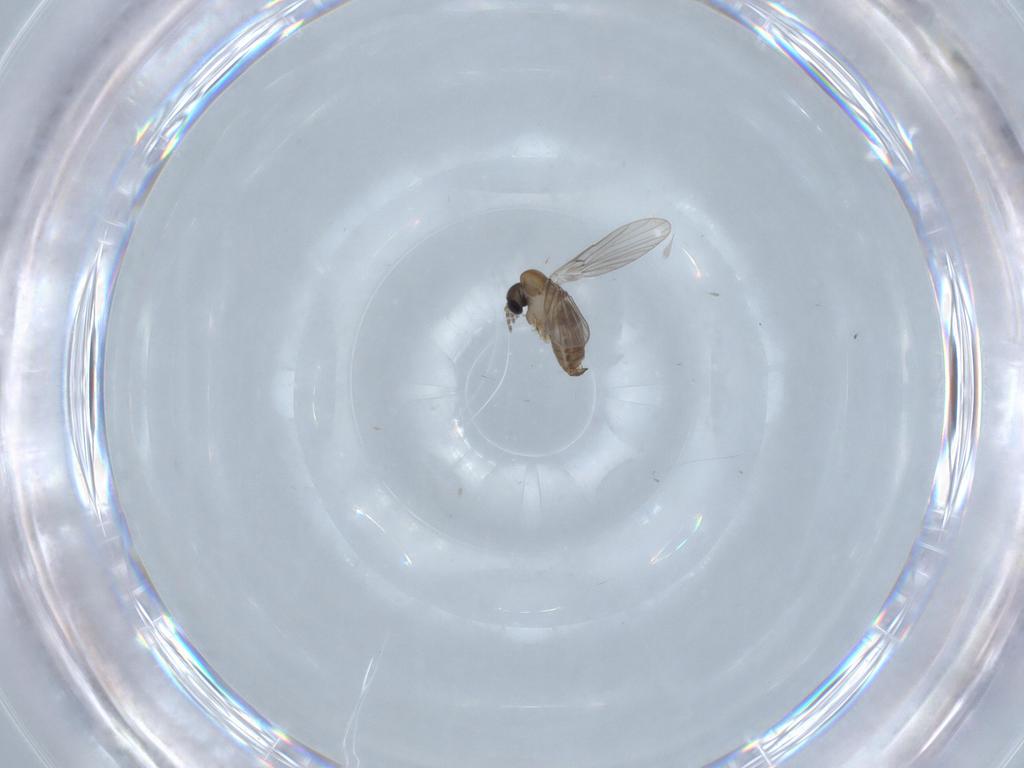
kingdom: Animalia
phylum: Arthropoda
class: Insecta
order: Diptera
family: Psychodidae
